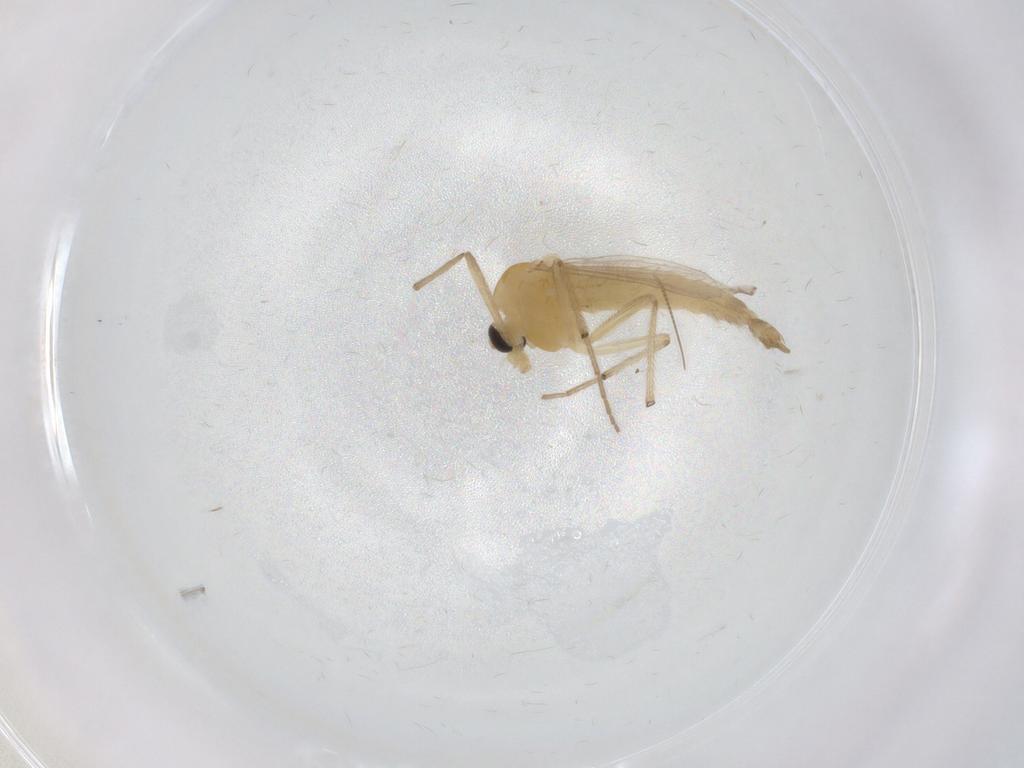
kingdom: Animalia
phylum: Arthropoda
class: Insecta
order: Diptera
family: Chironomidae
